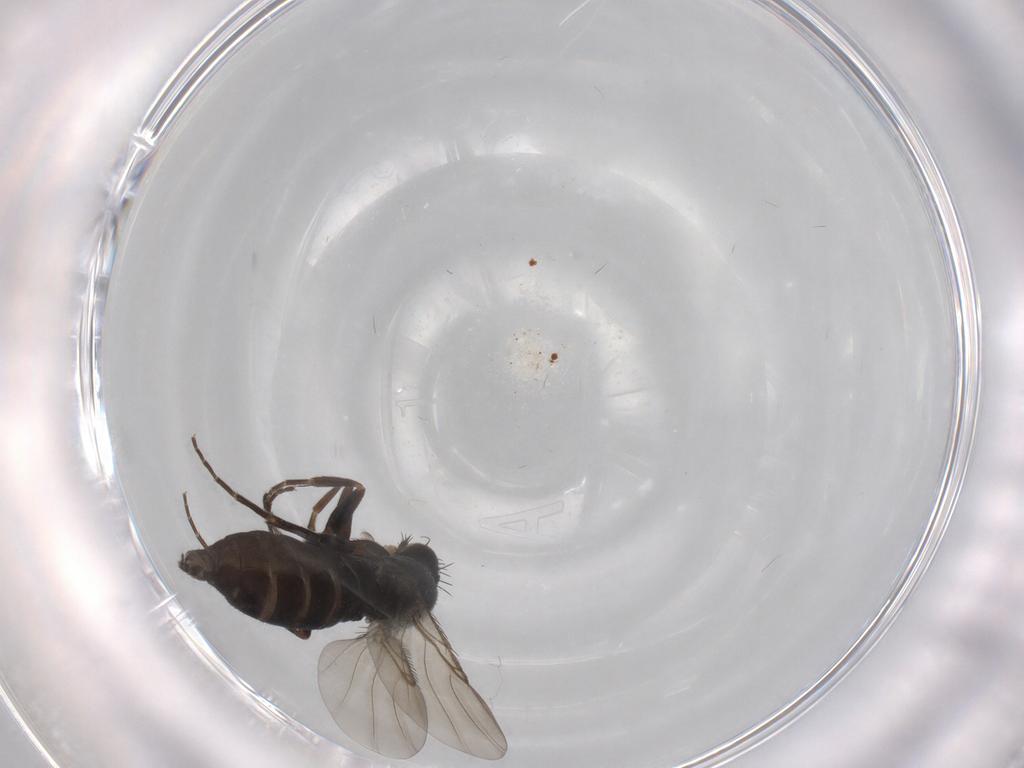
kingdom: Animalia
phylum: Arthropoda
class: Insecta
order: Diptera
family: Phoridae
